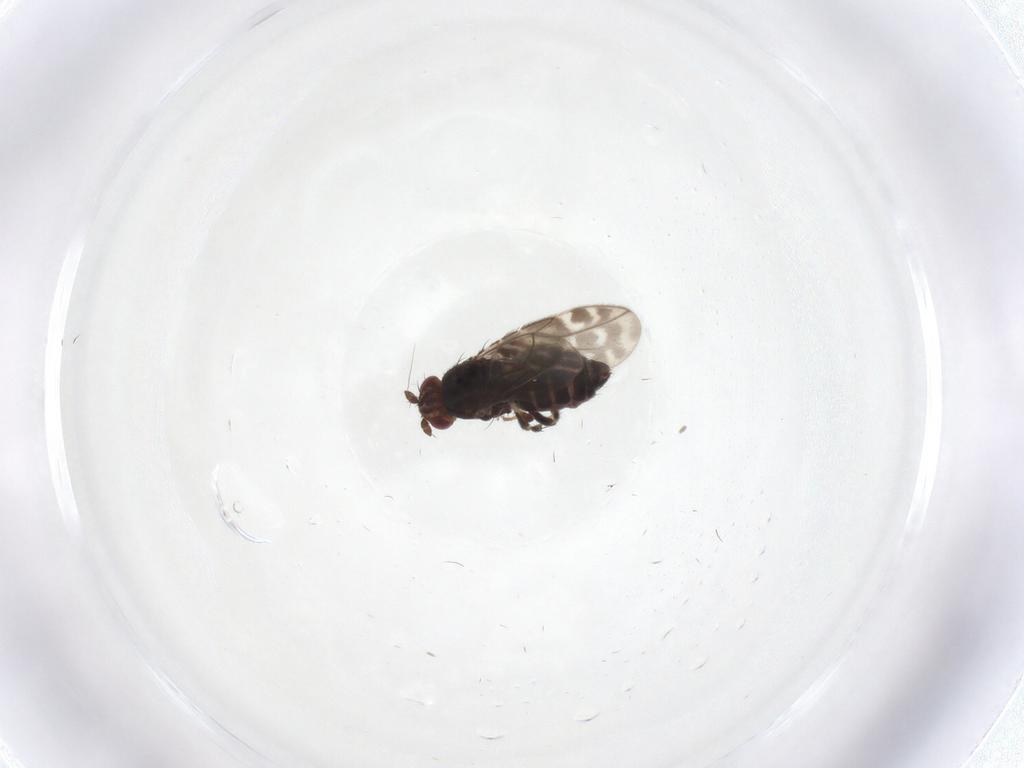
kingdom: Animalia
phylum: Arthropoda
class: Insecta
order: Diptera
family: Sphaeroceridae
